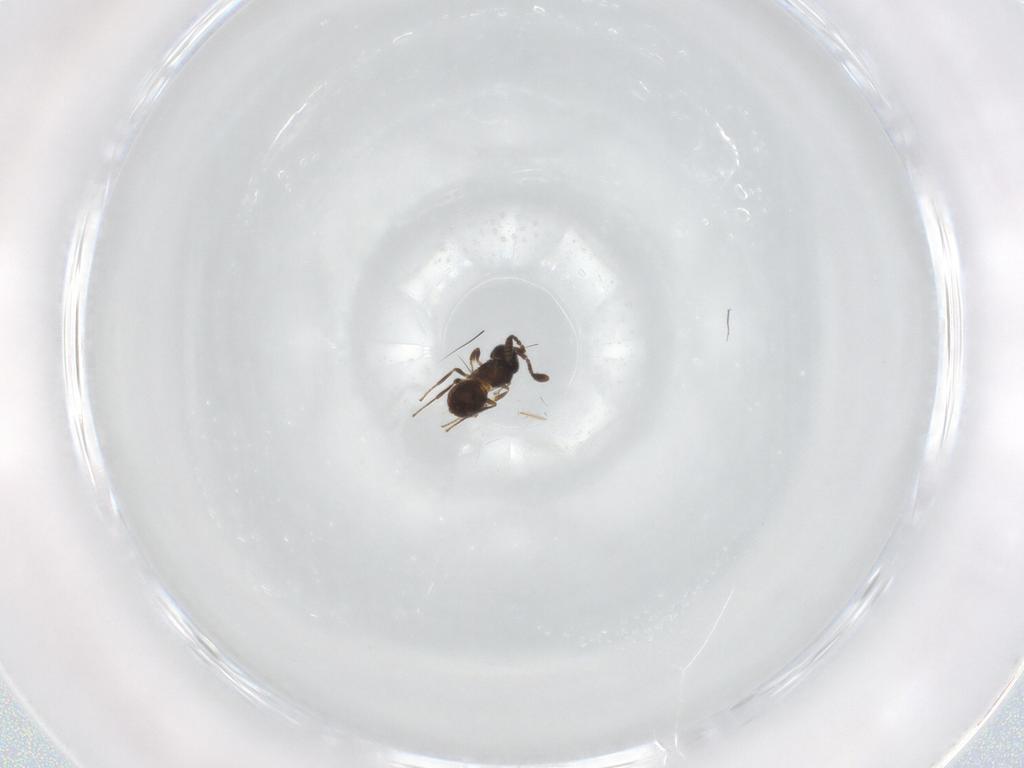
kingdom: Animalia
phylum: Arthropoda
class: Insecta
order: Hymenoptera
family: Scelionidae
